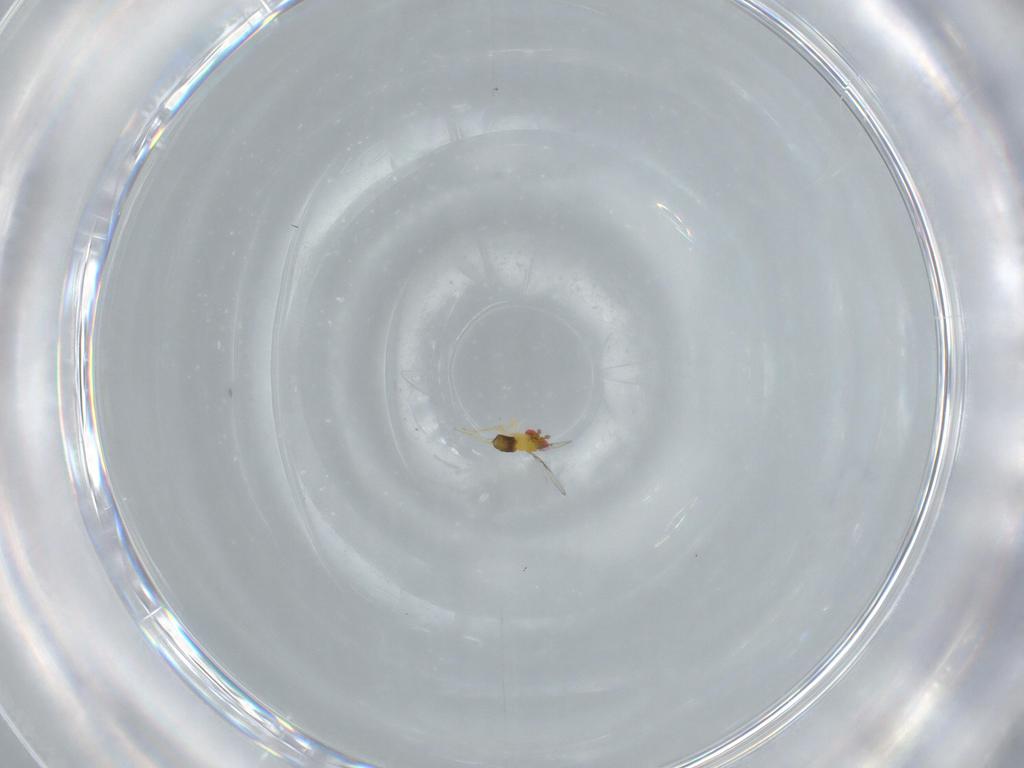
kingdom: Animalia
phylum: Arthropoda
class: Insecta
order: Hymenoptera
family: Trichogrammatidae
